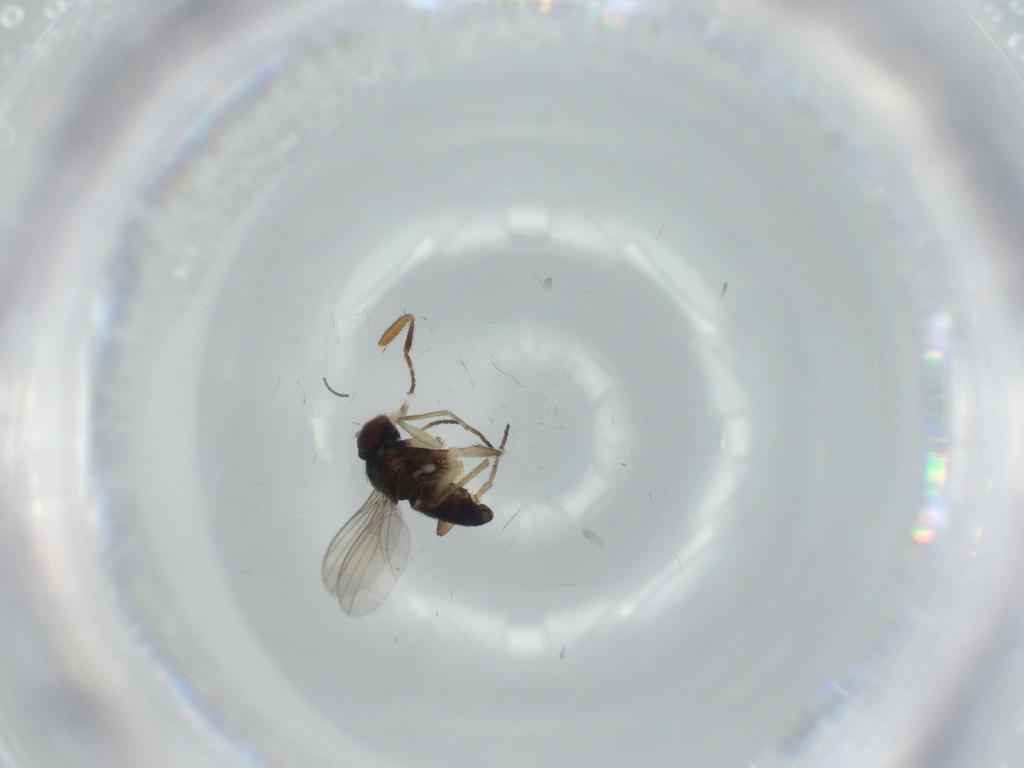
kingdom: Animalia
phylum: Arthropoda
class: Insecta
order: Diptera
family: Dolichopodidae
